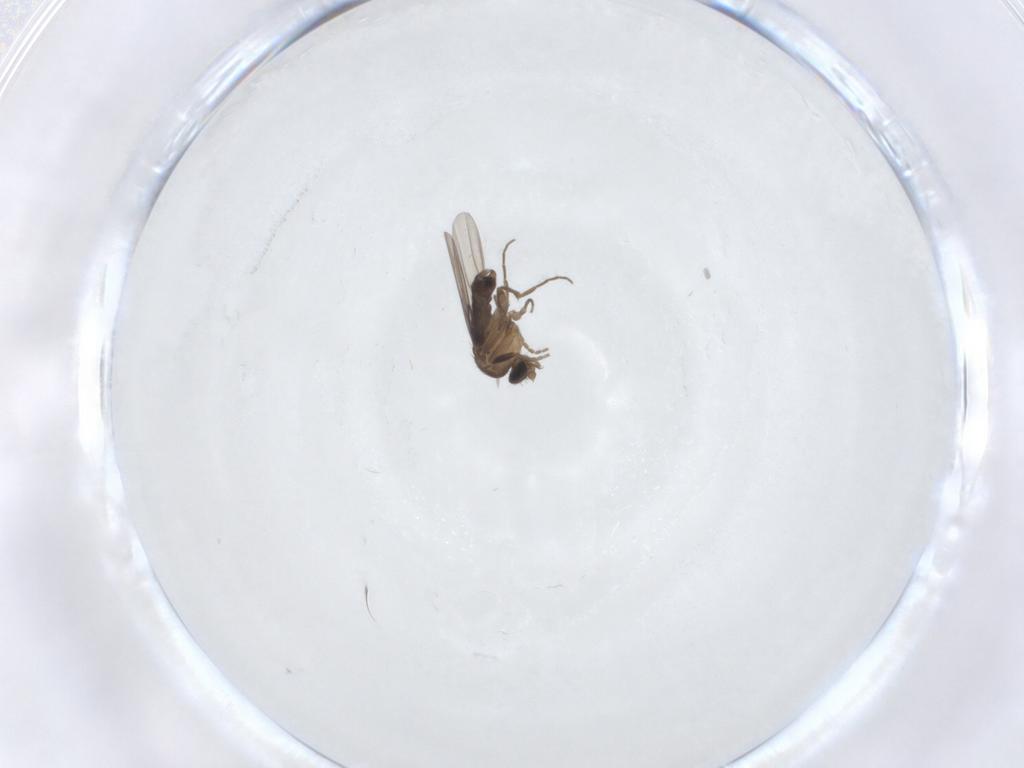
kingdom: Animalia
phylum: Arthropoda
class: Insecta
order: Diptera
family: Phoridae
